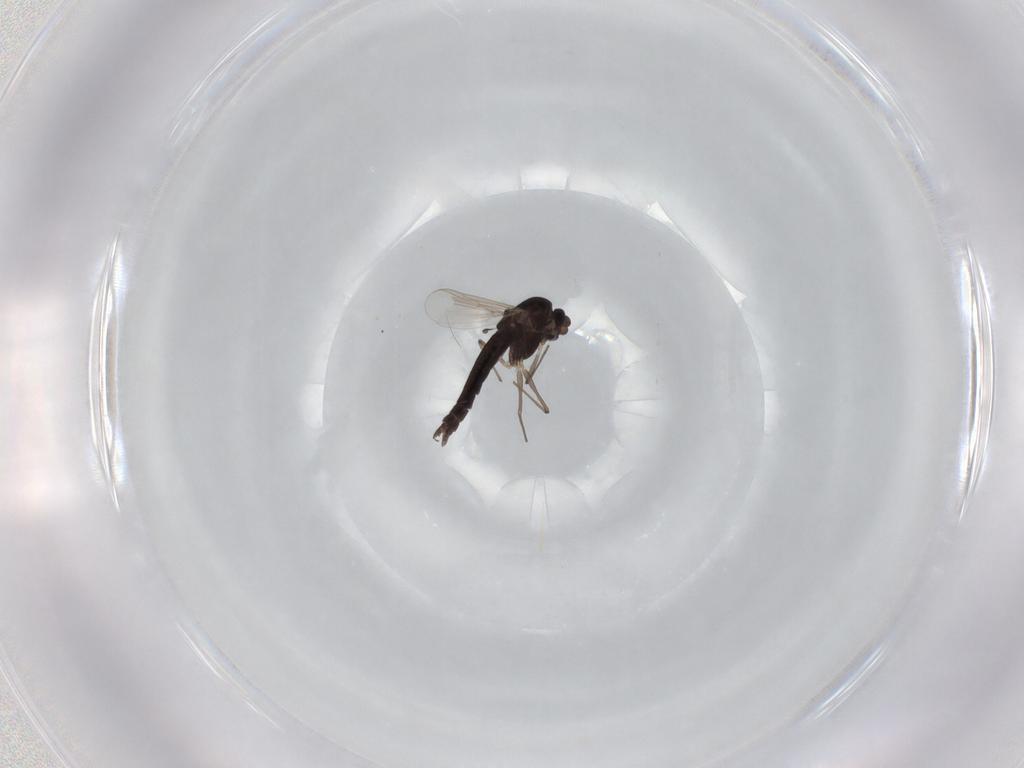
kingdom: Animalia
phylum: Arthropoda
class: Insecta
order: Diptera
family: Chironomidae
